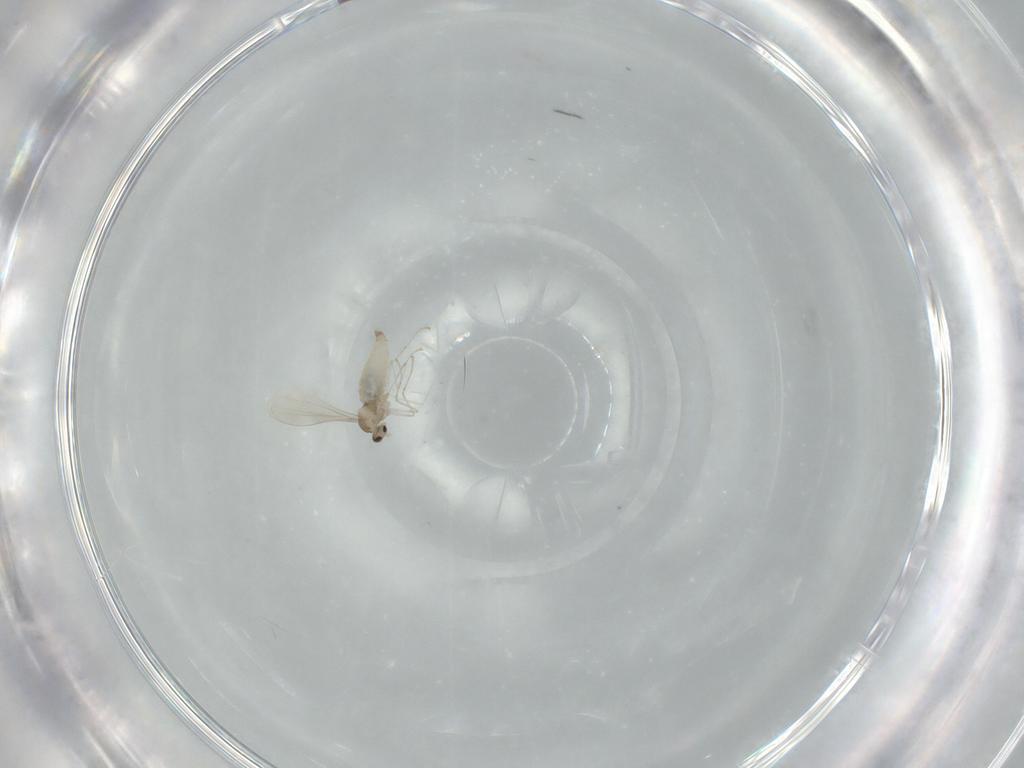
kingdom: Animalia
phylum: Arthropoda
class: Insecta
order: Diptera
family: Cecidomyiidae
